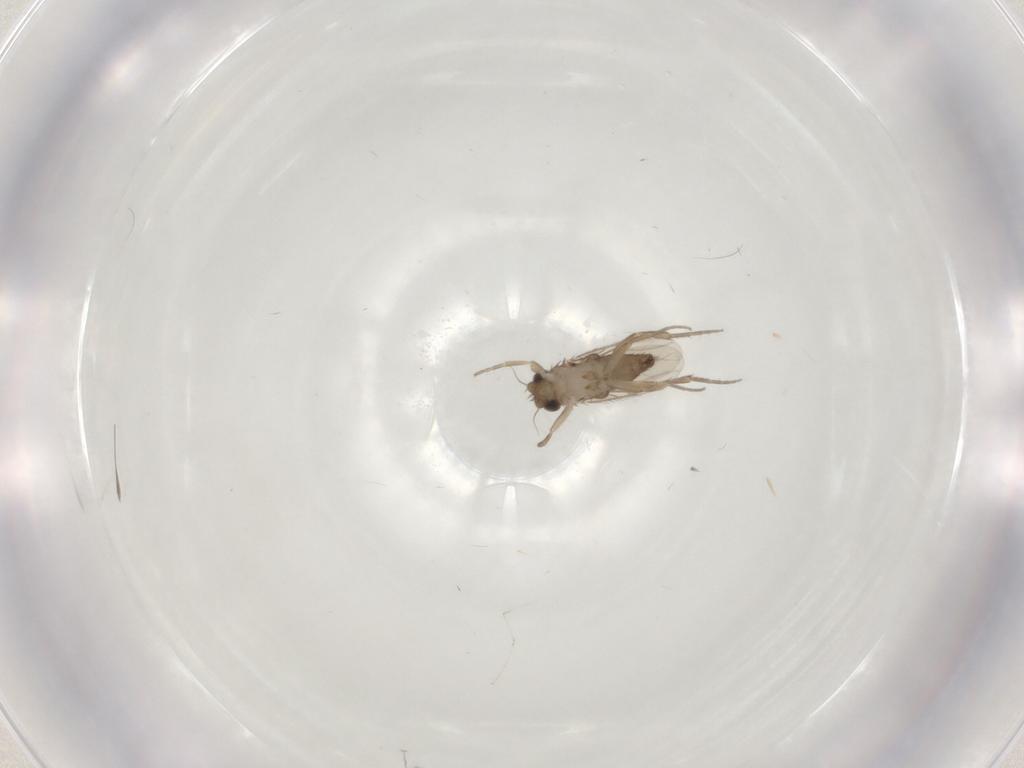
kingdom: Animalia
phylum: Arthropoda
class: Insecta
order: Diptera
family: Phoridae
